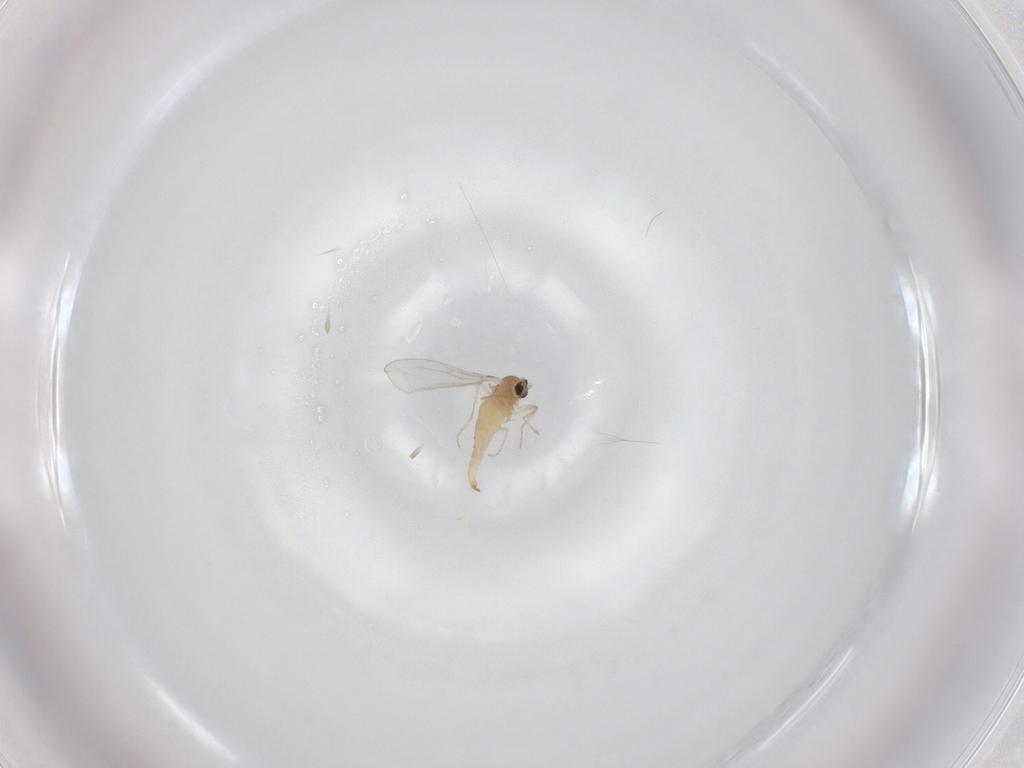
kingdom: Animalia
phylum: Arthropoda
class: Insecta
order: Diptera
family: Cecidomyiidae
